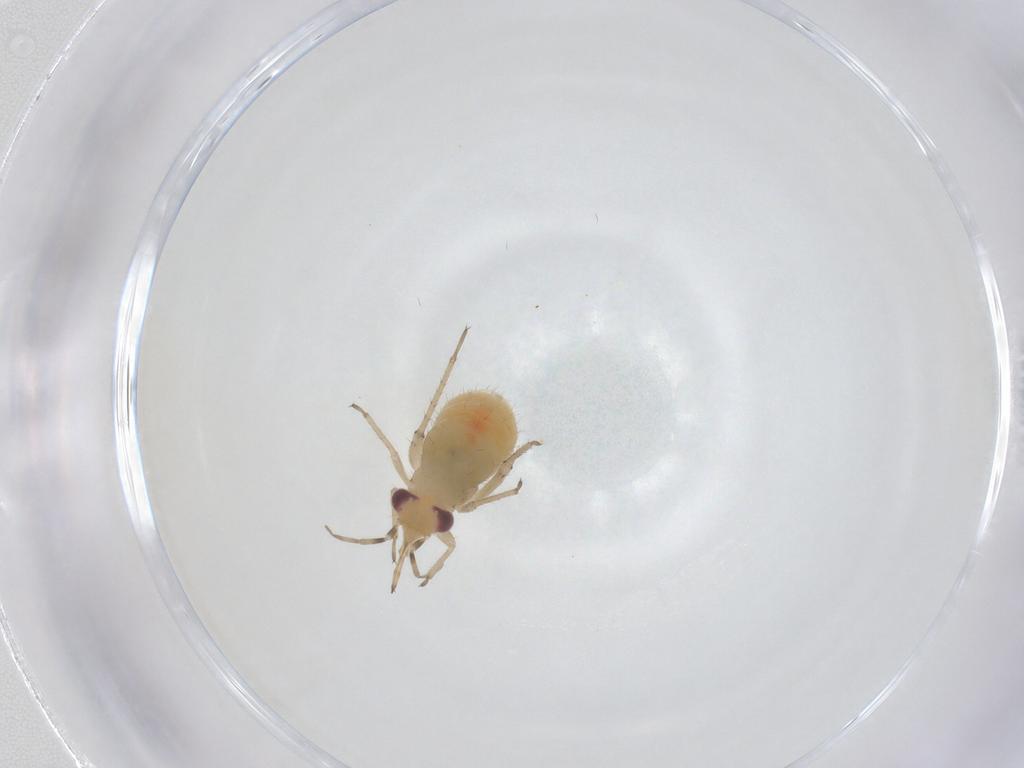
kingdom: Animalia
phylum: Arthropoda
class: Insecta
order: Hemiptera
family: Miridae
